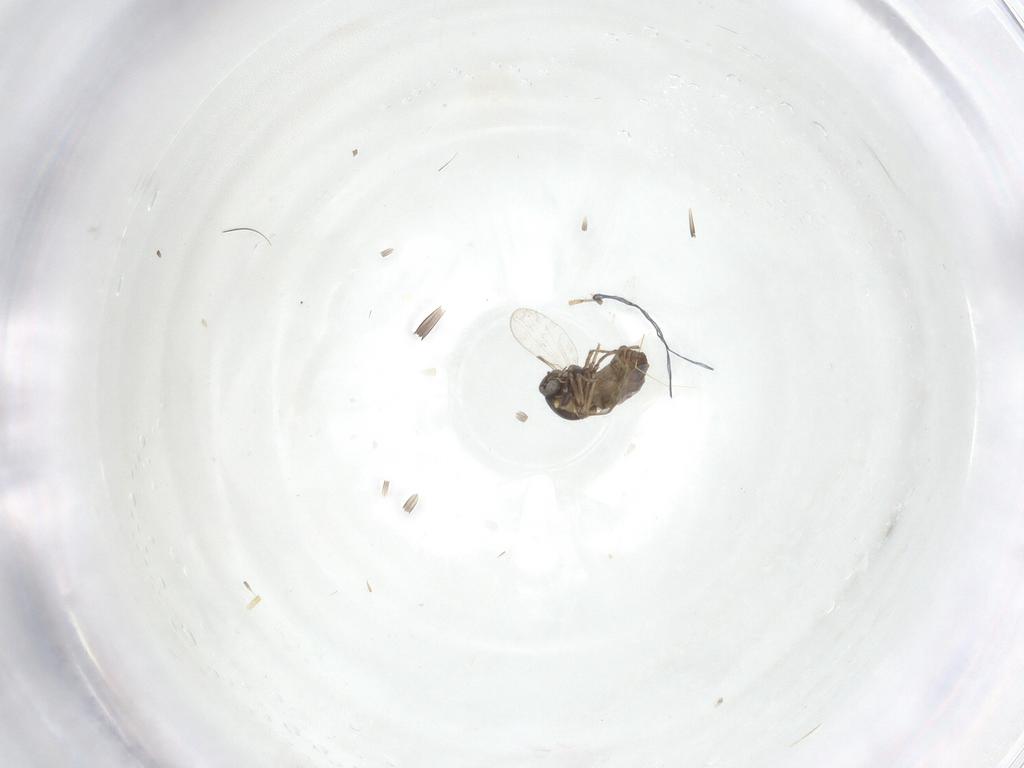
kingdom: Animalia
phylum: Arthropoda
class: Insecta
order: Diptera
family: Ceratopogonidae
